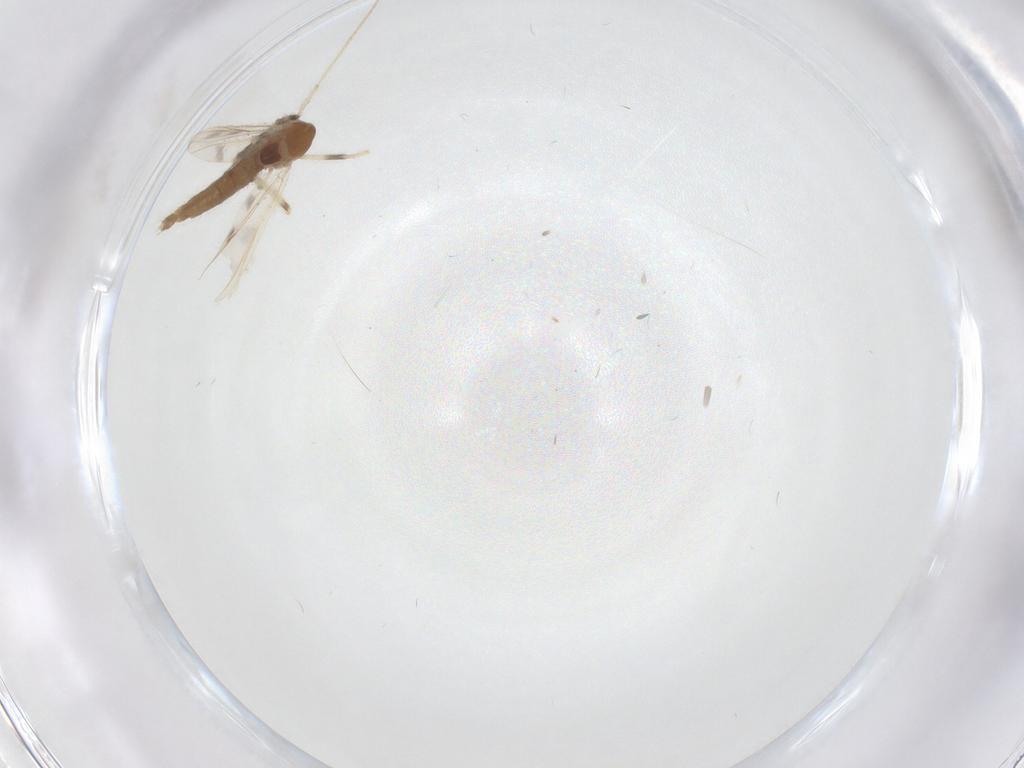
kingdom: Animalia
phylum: Arthropoda
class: Insecta
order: Diptera
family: Chironomidae
